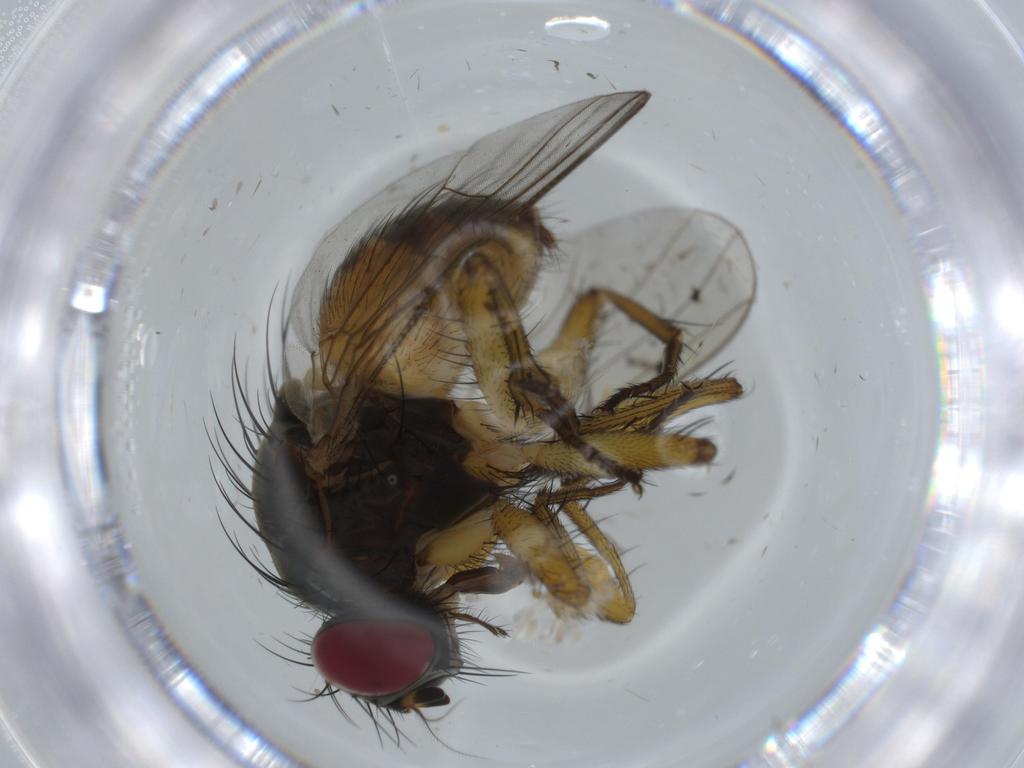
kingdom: Animalia
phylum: Arthropoda
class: Insecta
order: Diptera
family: Muscidae
